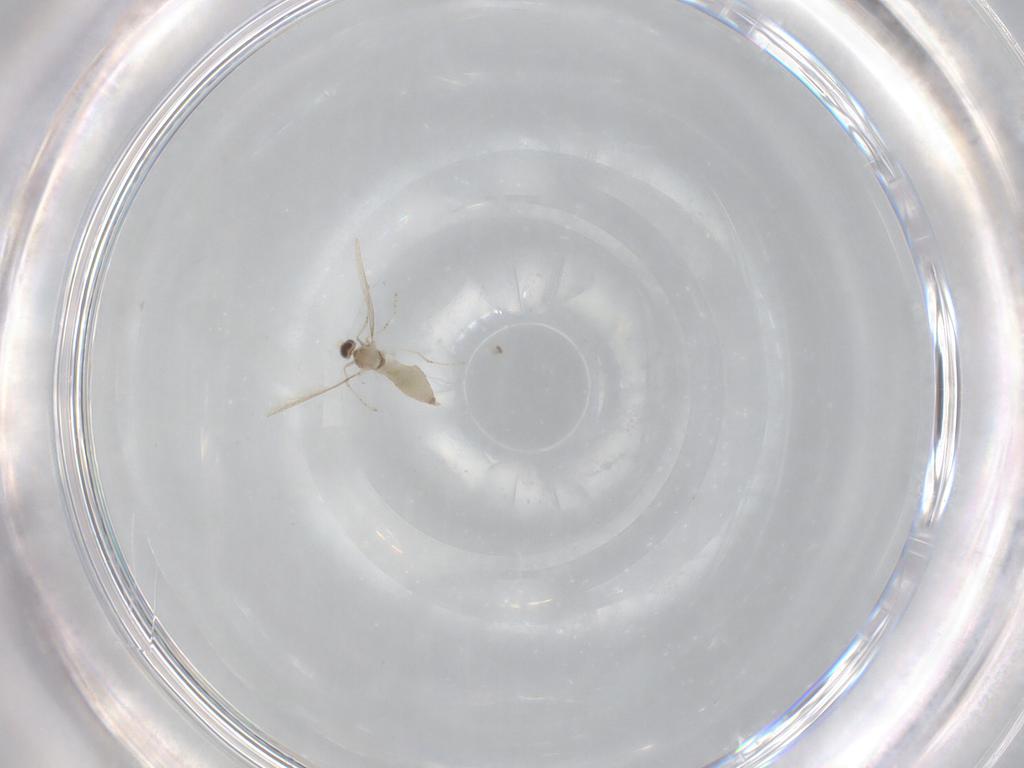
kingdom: Animalia
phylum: Arthropoda
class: Insecta
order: Diptera
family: Cecidomyiidae
